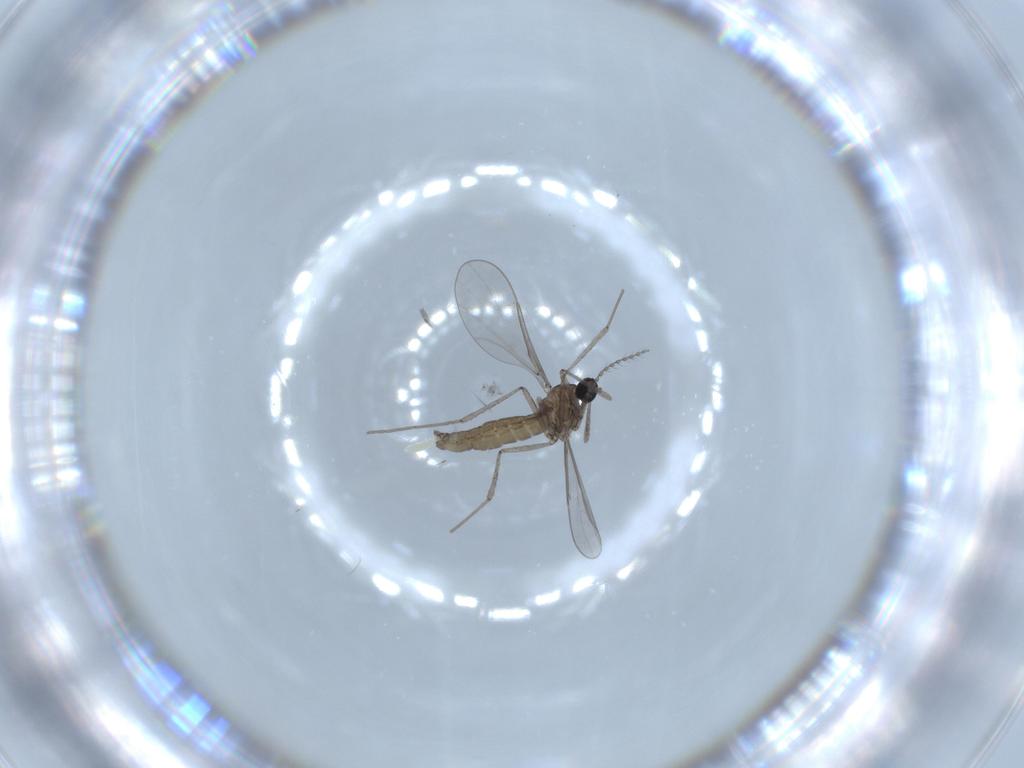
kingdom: Animalia
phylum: Arthropoda
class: Insecta
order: Diptera
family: Cecidomyiidae
